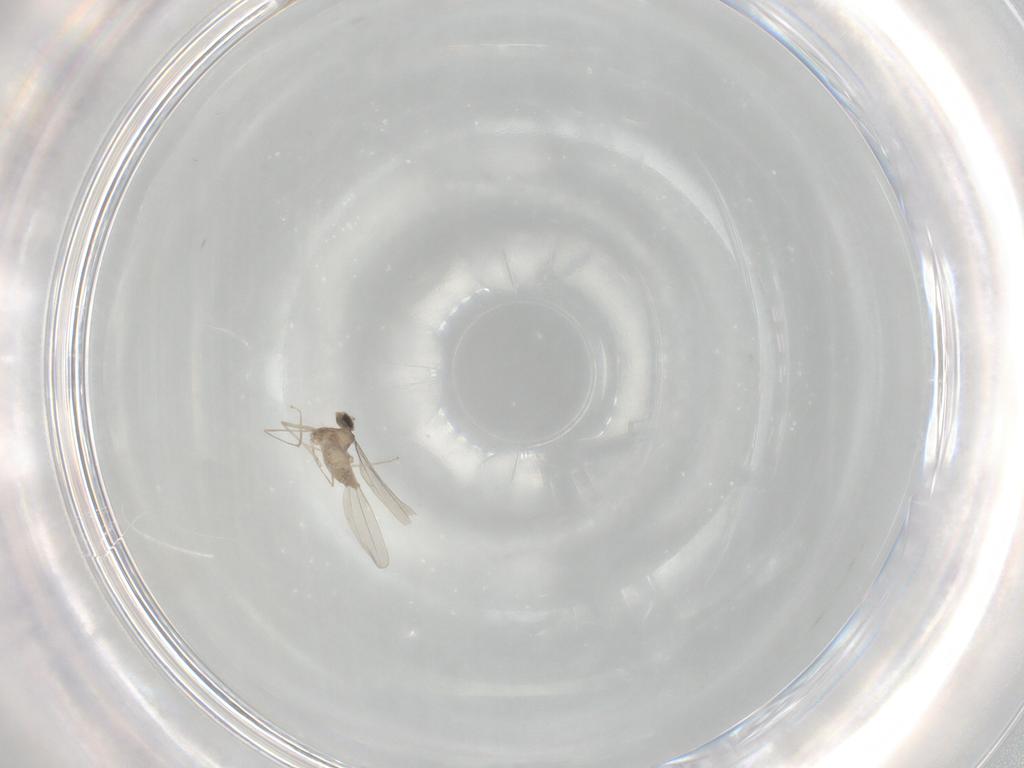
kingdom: Animalia
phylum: Arthropoda
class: Insecta
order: Diptera
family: Cecidomyiidae
